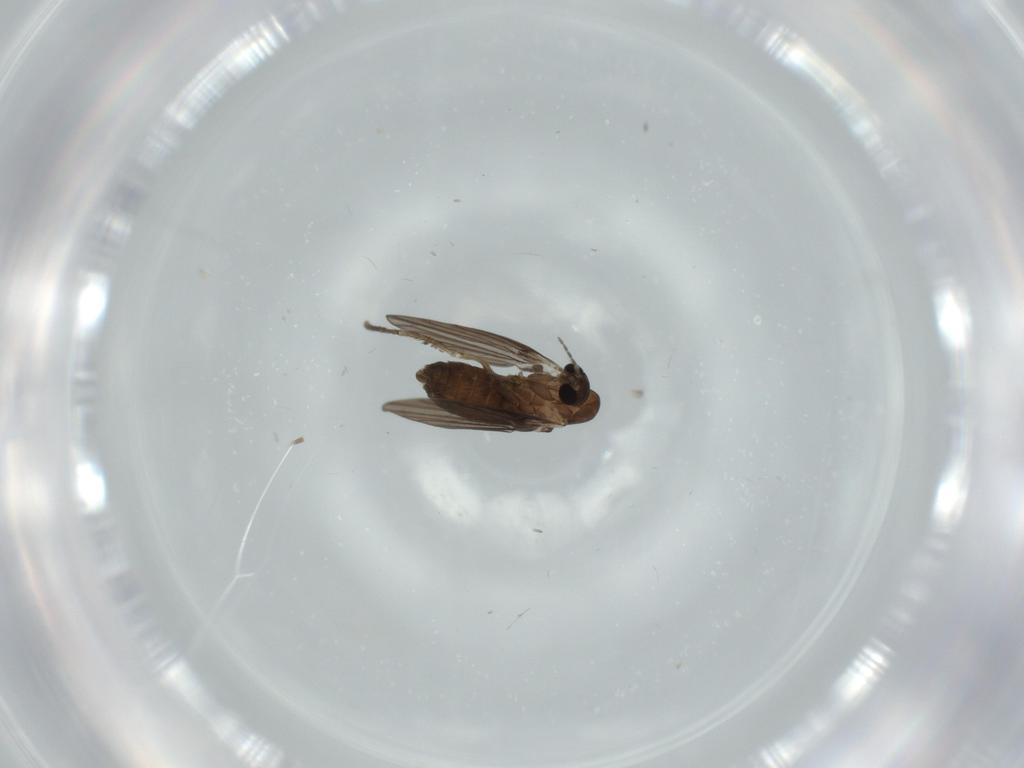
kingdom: Animalia
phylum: Arthropoda
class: Insecta
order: Diptera
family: Psychodidae
